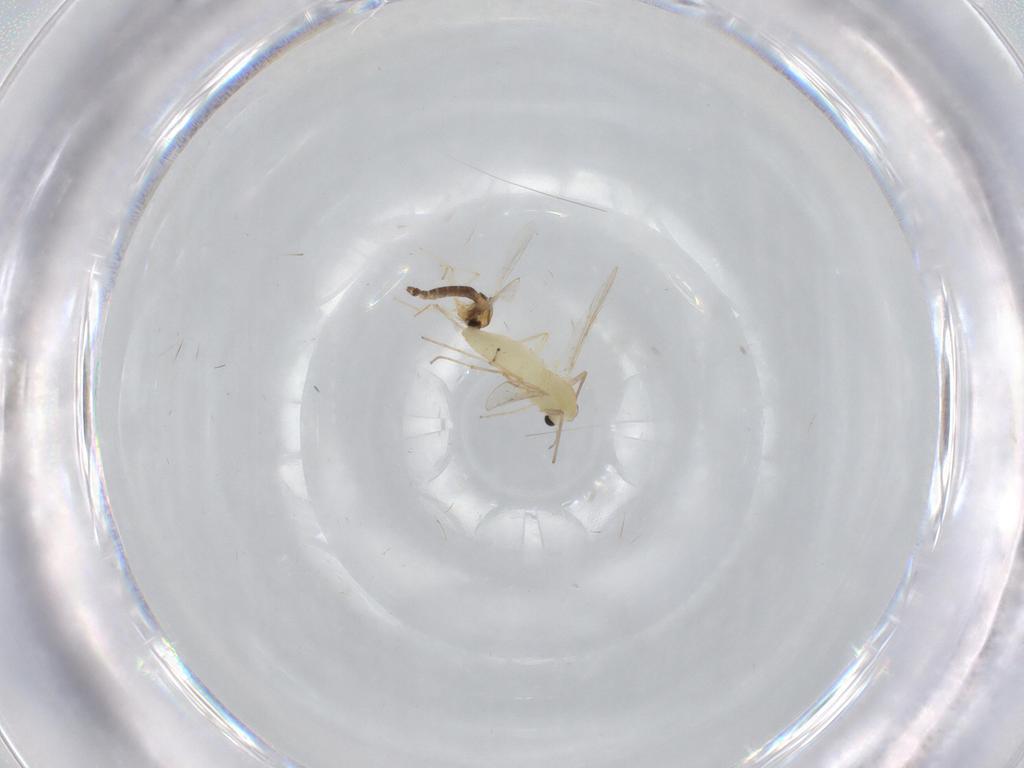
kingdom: Animalia
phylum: Arthropoda
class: Insecta
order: Diptera
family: Chironomidae
